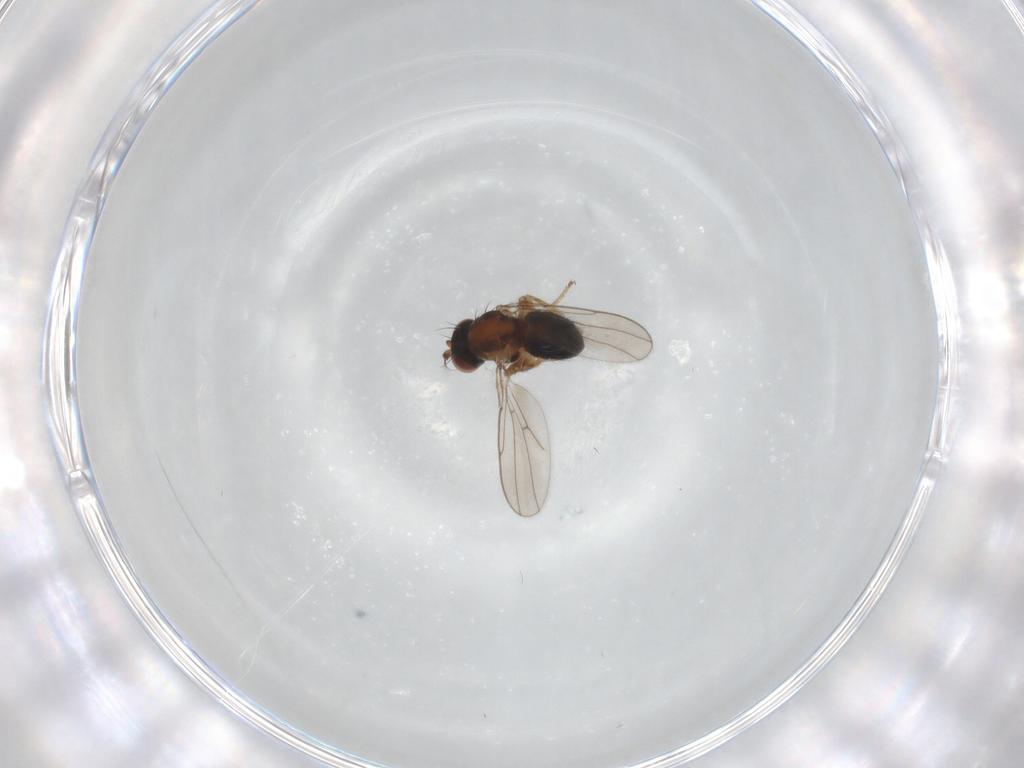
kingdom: Animalia
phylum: Arthropoda
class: Insecta
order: Diptera
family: Ephydridae
